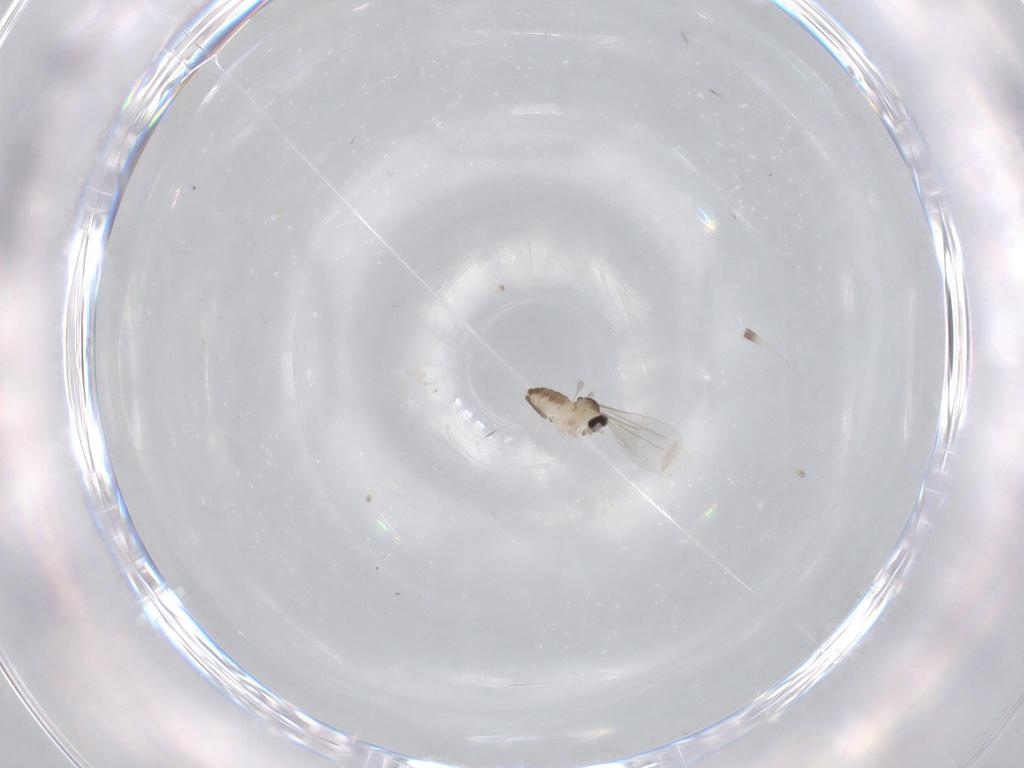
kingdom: Animalia
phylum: Arthropoda
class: Insecta
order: Diptera
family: Cecidomyiidae
